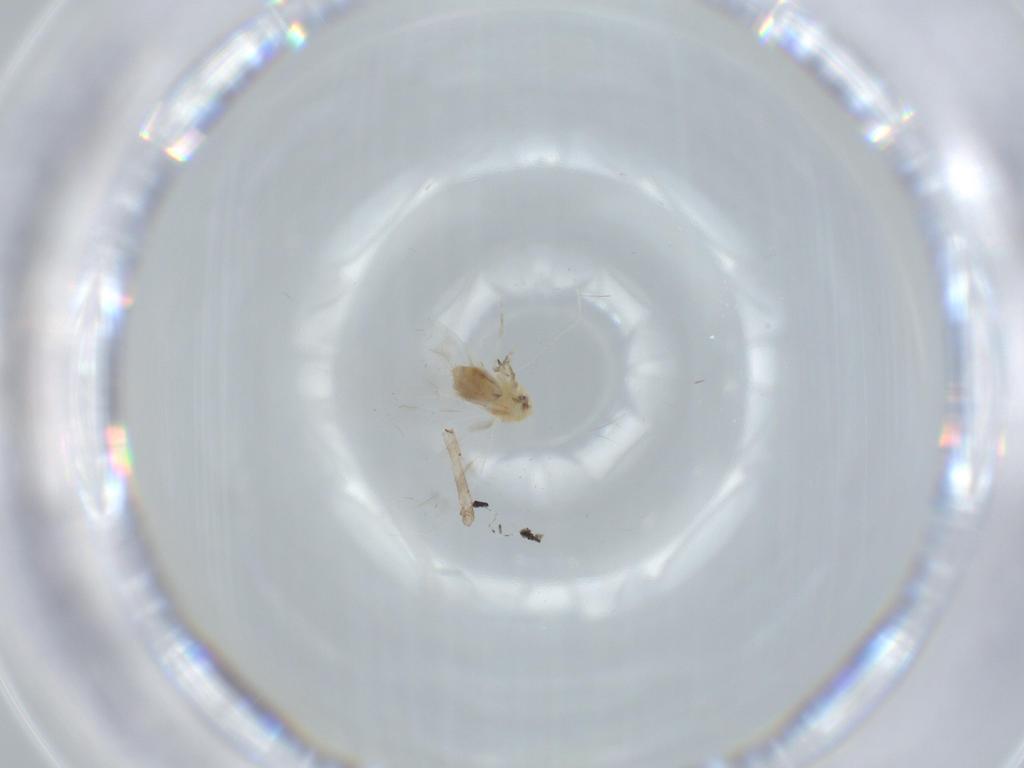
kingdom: Animalia
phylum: Arthropoda
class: Insecta
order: Hemiptera
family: Aleyrodidae
